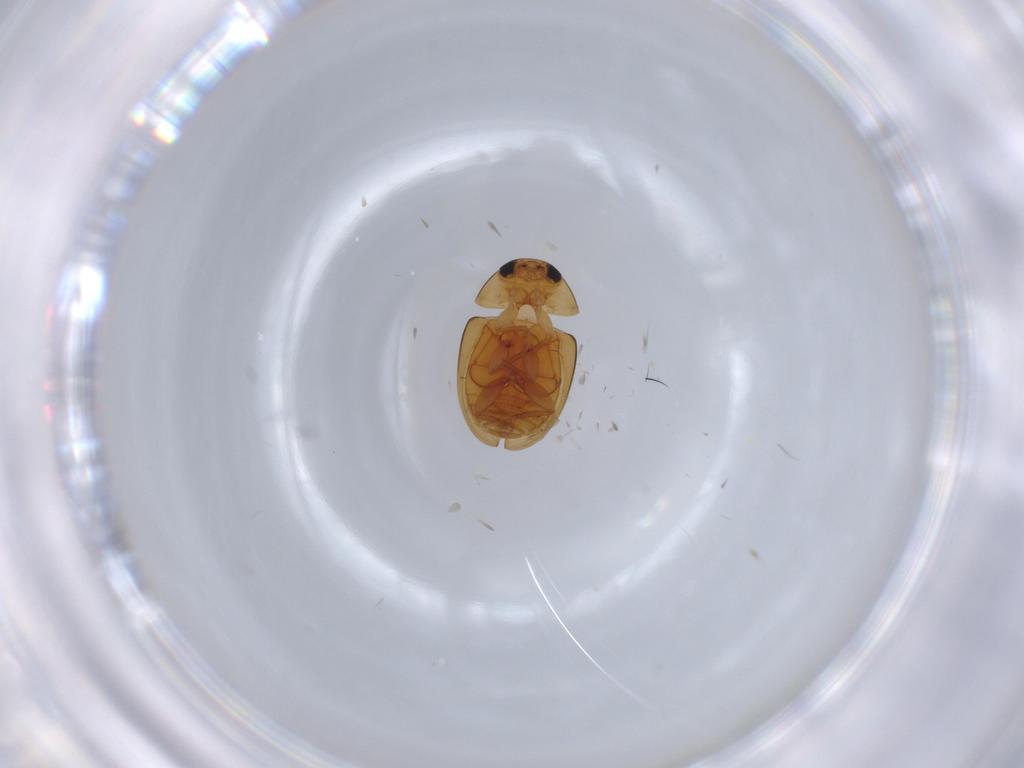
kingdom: Animalia
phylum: Arthropoda
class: Insecta
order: Coleoptera
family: Phalacridae
